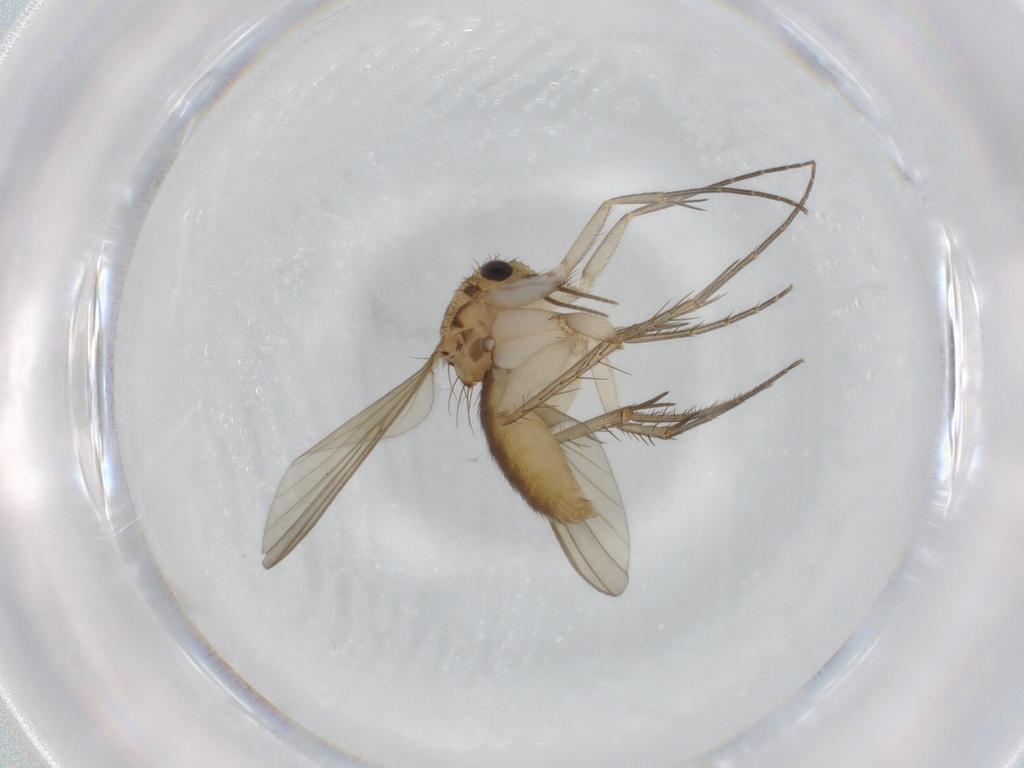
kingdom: Animalia
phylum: Arthropoda
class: Insecta
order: Diptera
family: Mycetophilidae
